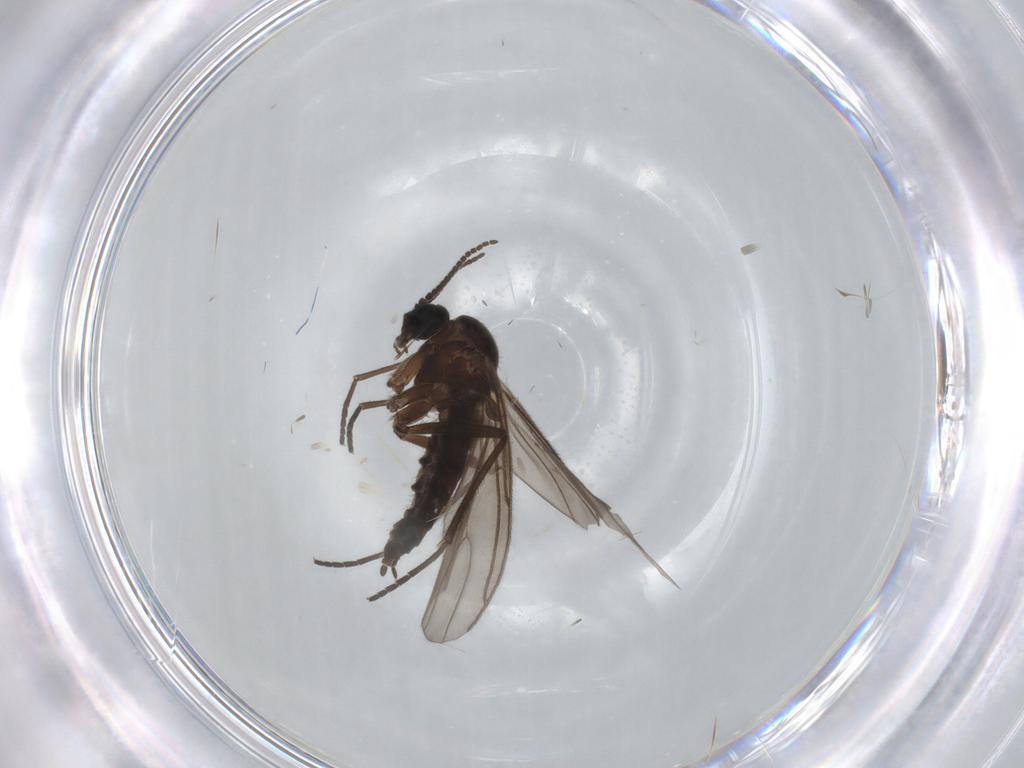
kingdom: Animalia
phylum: Arthropoda
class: Insecta
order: Diptera
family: Sciaridae
